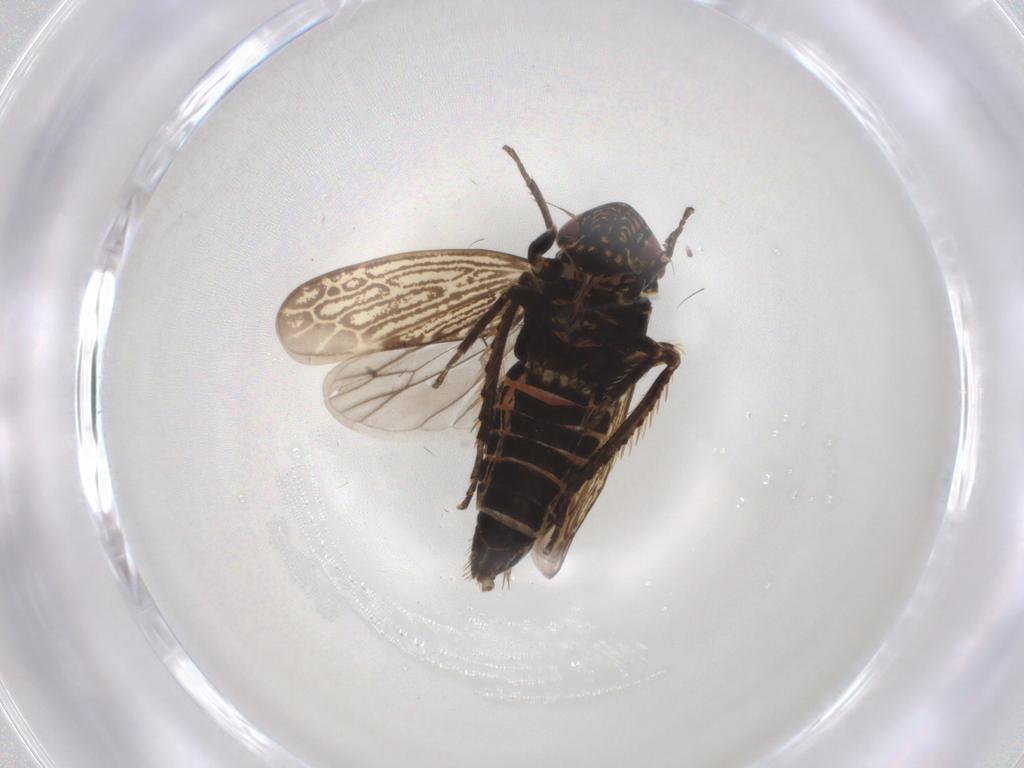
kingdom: Animalia
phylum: Arthropoda
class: Insecta
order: Hemiptera
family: Cicadellidae
